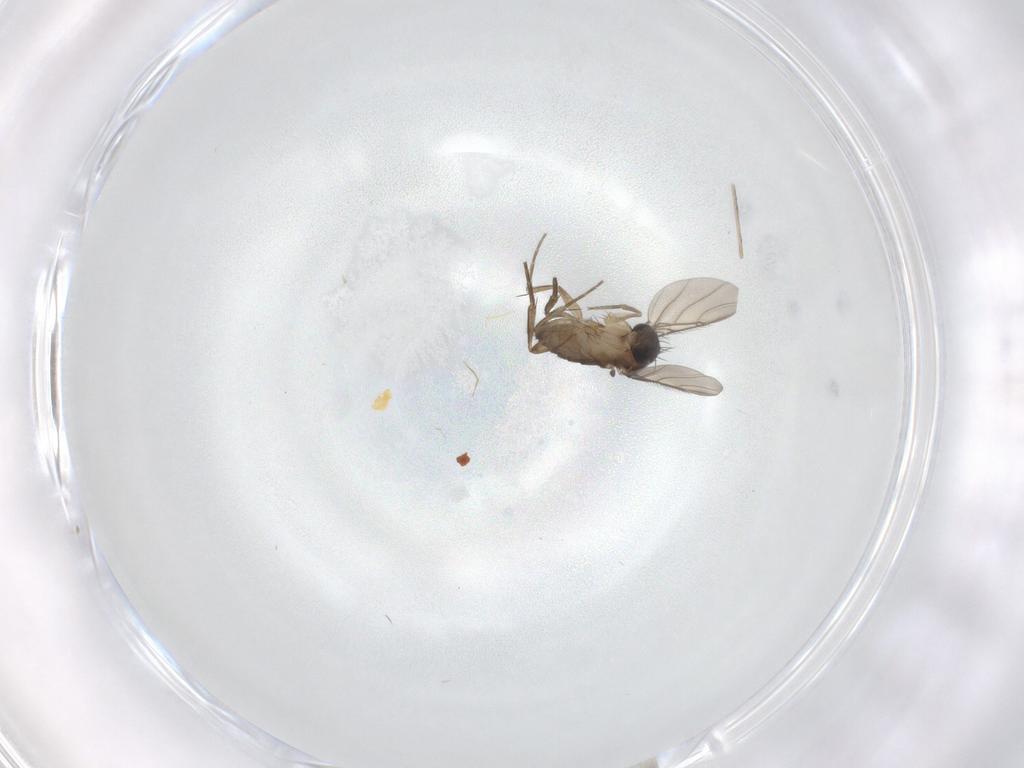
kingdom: Animalia
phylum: Arthropoda
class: Insecta
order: Diptera
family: Phoridae
